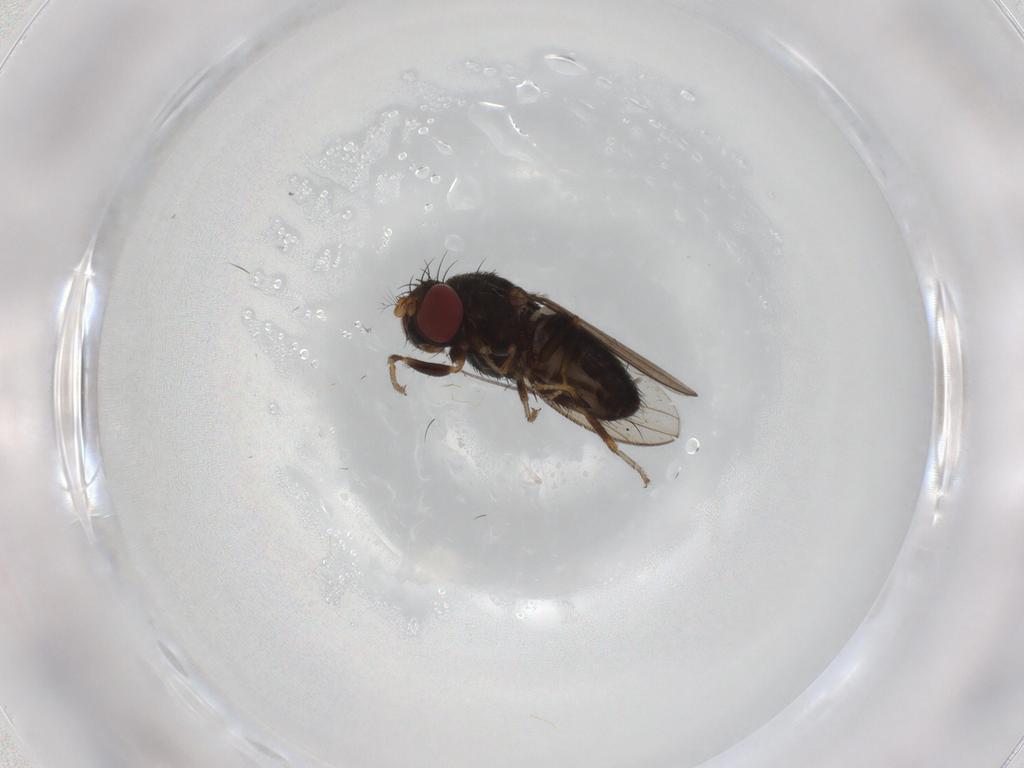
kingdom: Animalia
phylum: Arthropoda
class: Insecta
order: Diptera
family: Ephydridae
